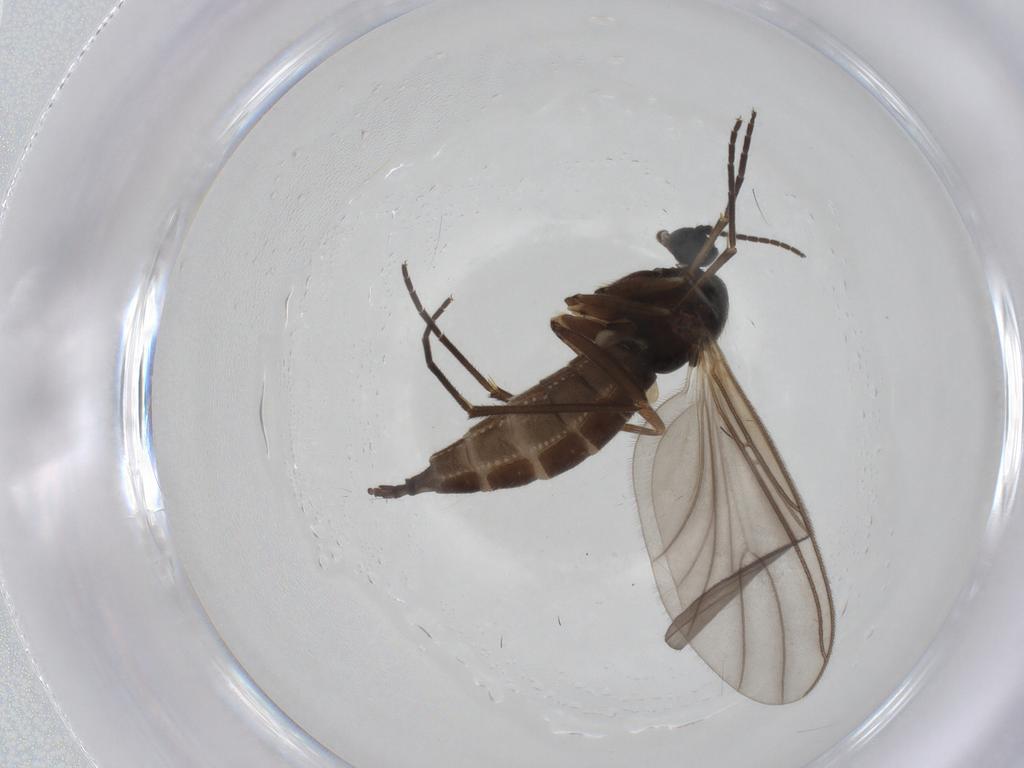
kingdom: Animalia
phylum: Arthropoda
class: Insecta
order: Diptera
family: Sciaridae
